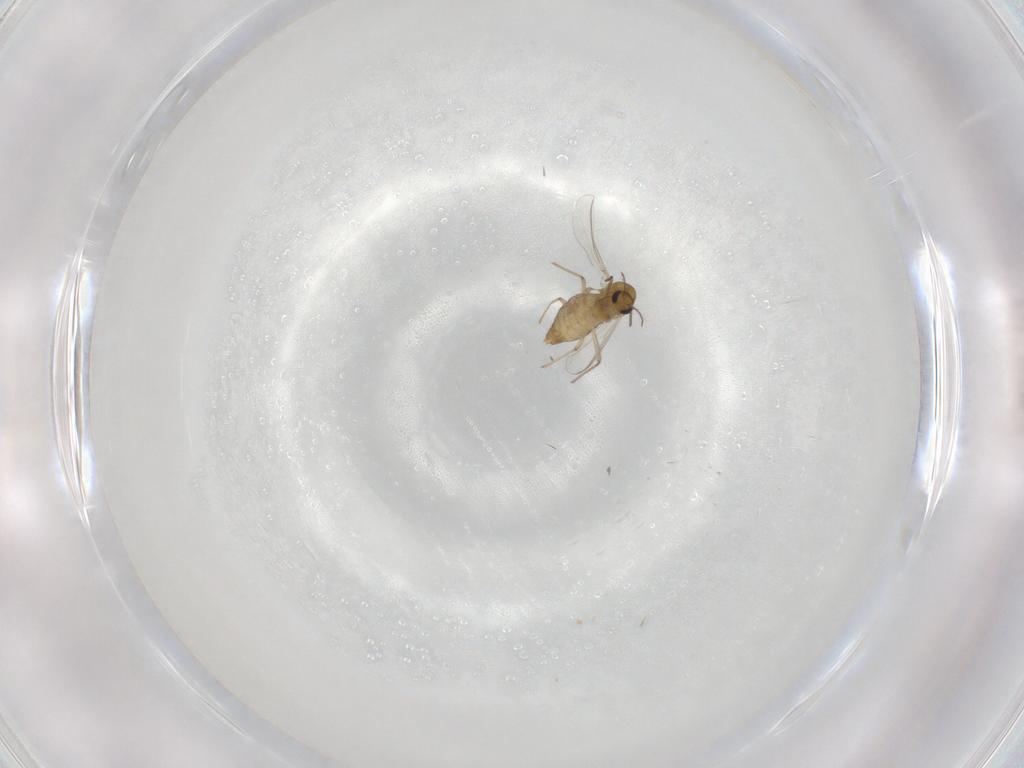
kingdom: Animalia
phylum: Arthropoda
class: Insecta
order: Diptera
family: Chironomidae
